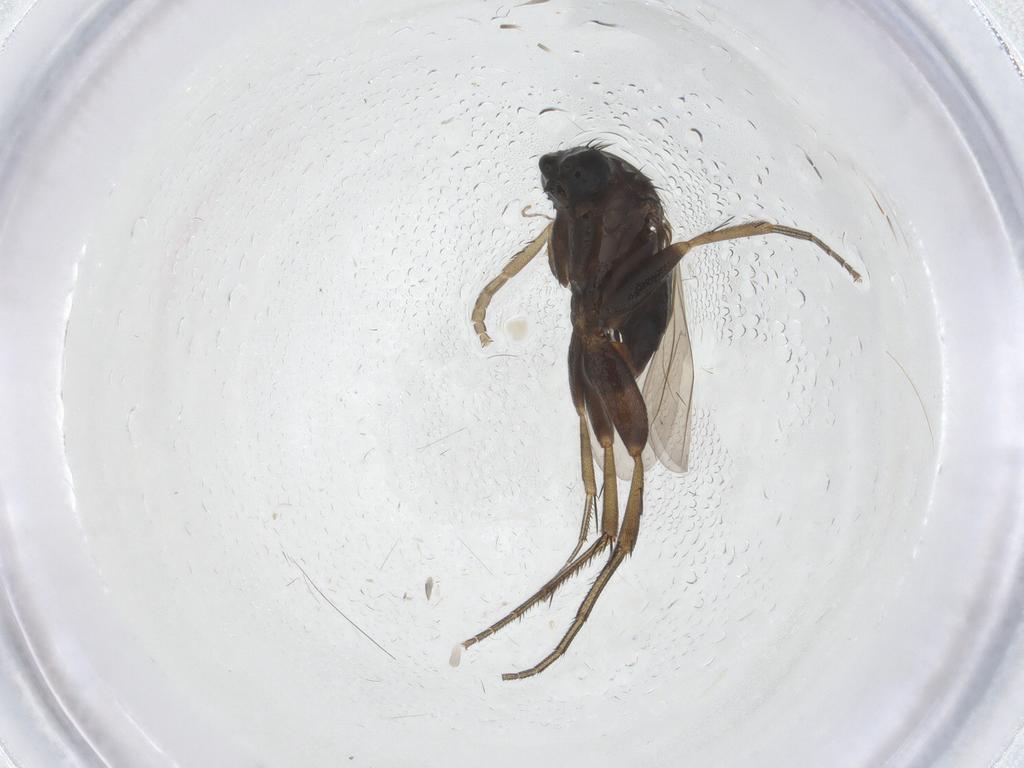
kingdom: Animalia
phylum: Arthropoda
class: Insecta
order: Diptera
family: Phoridae
